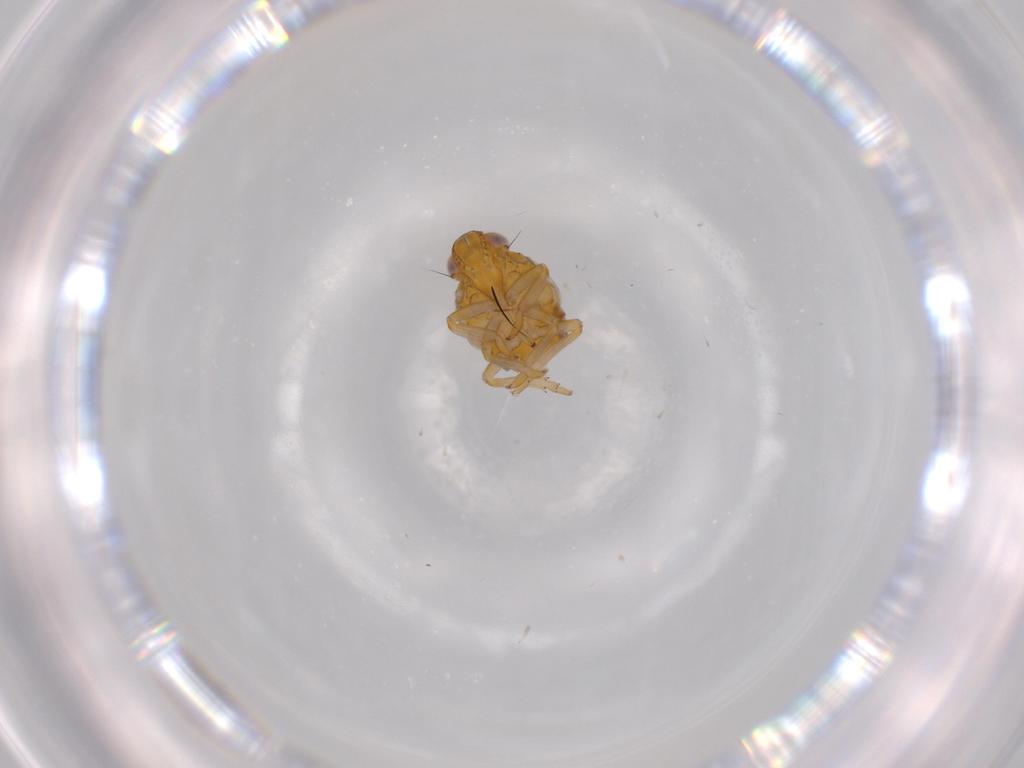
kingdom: Animalia
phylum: Arthropoda
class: Insecta
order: Hemiptera
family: Issidae
